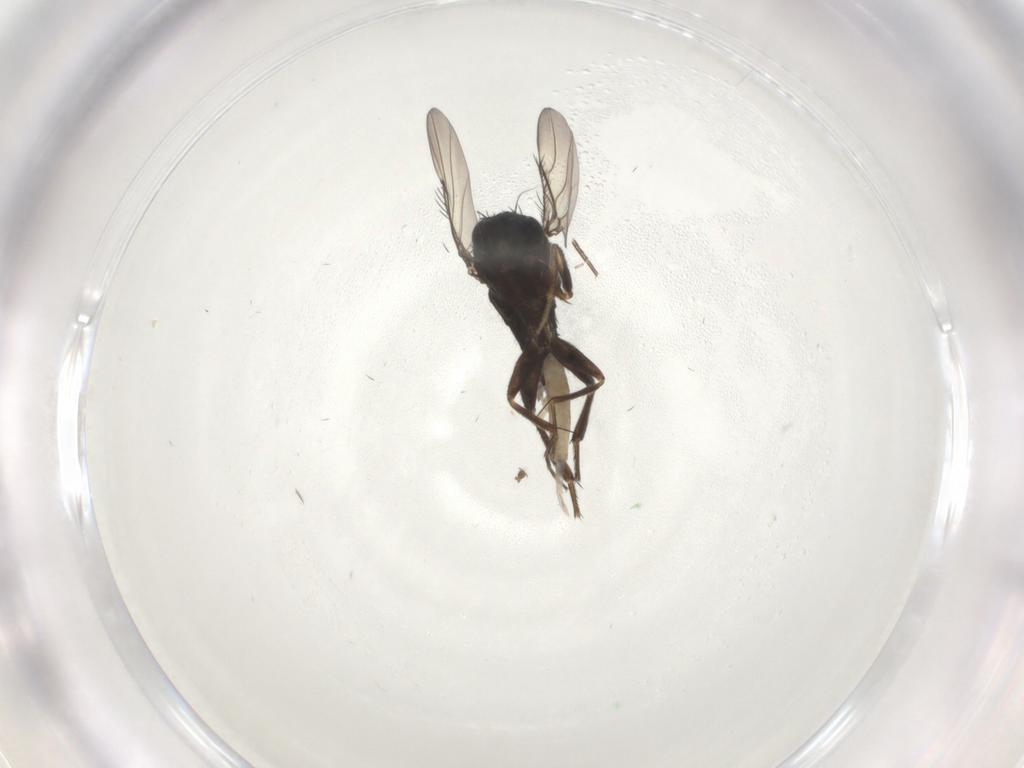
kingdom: Animalia
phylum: Arthropoda
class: Insecta
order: Diptera
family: Phoridae
